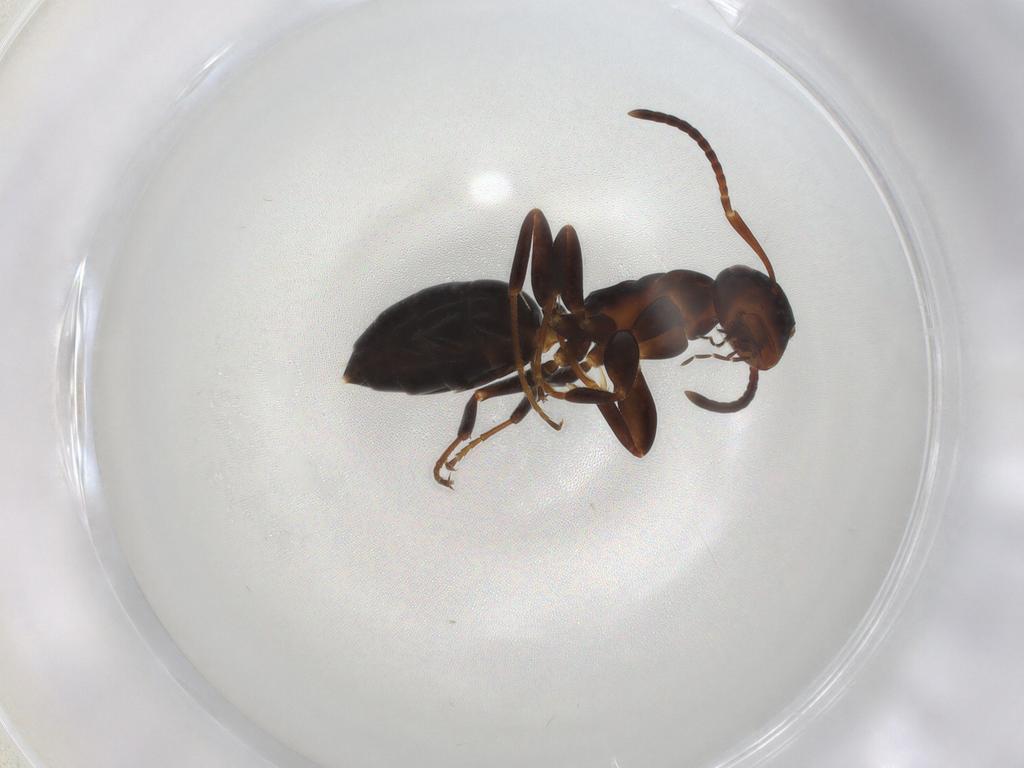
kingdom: Animalia
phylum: Arthropoda
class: Insecta
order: Hymenoptera
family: Formicidae
